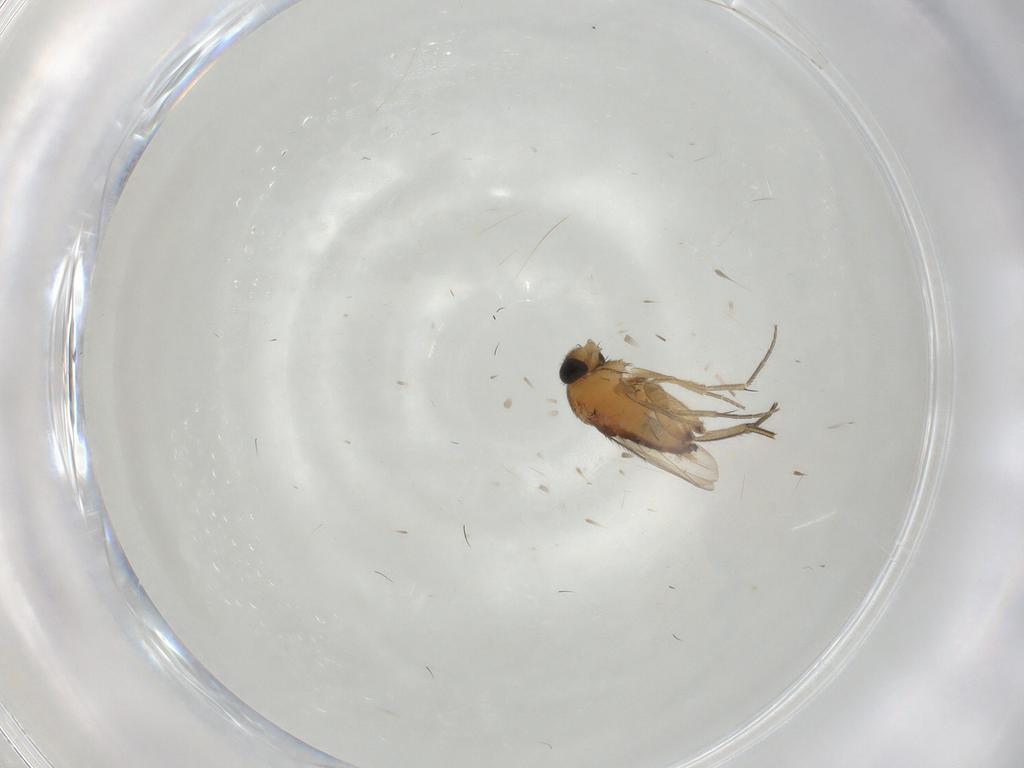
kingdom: Animalia
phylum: Arthropoda
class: Insecta
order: Diptera
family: Phoridae
